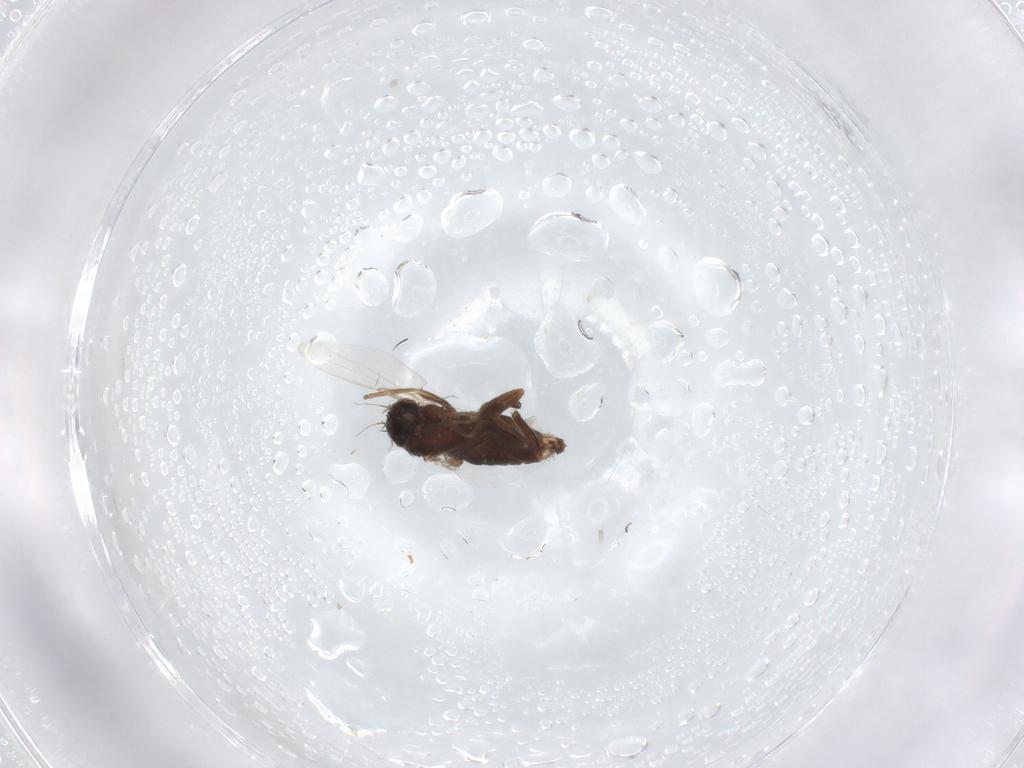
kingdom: Animalia
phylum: Arthropoda
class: Insecta
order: Diptera
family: Phoridae
